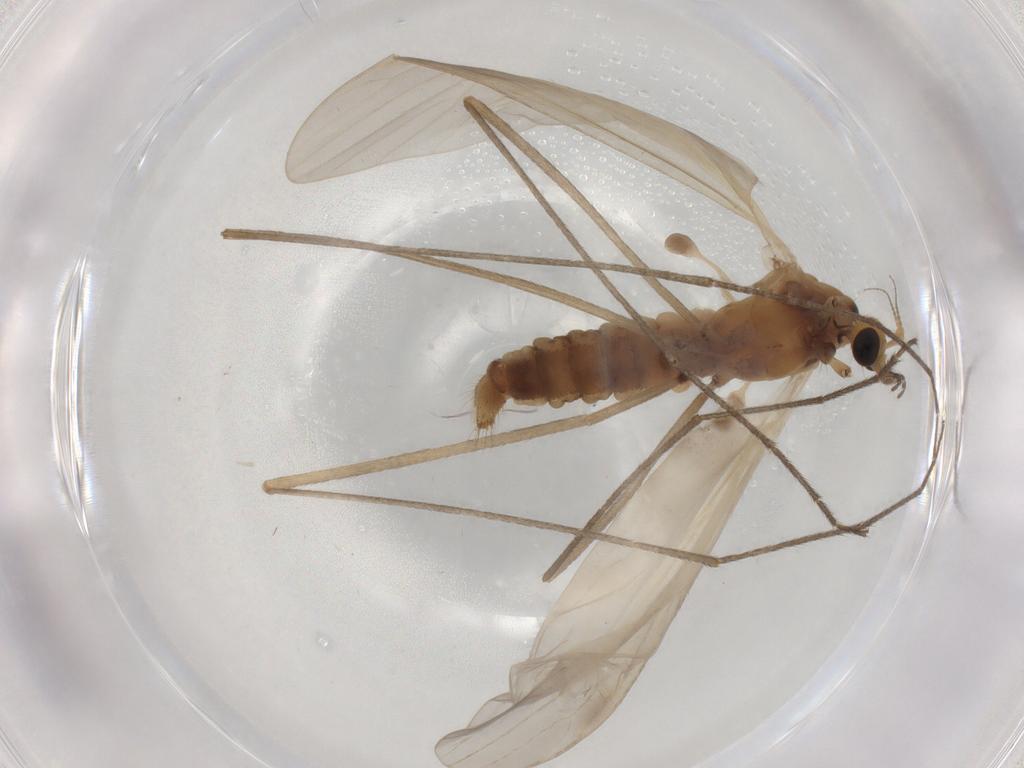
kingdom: Animalia
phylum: Arthropoda
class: Insecta
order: Diptera
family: Limoniidae
